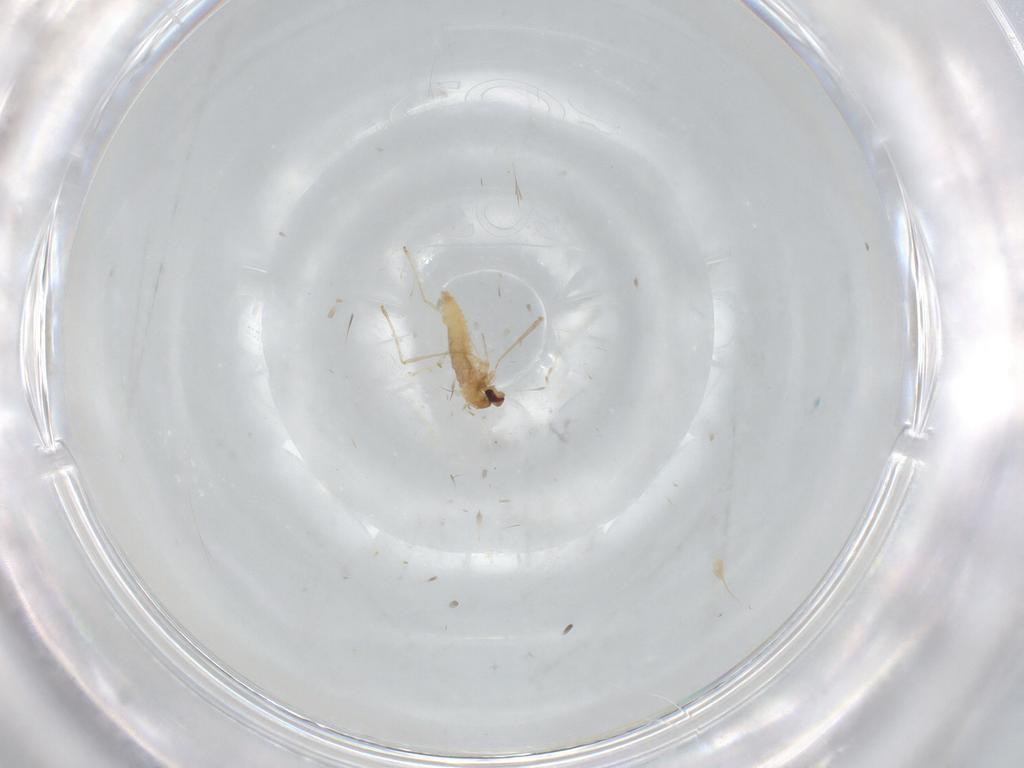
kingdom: Animalia
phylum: Arthropoda
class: Insecta
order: Diptera
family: Cecidomyiidae
